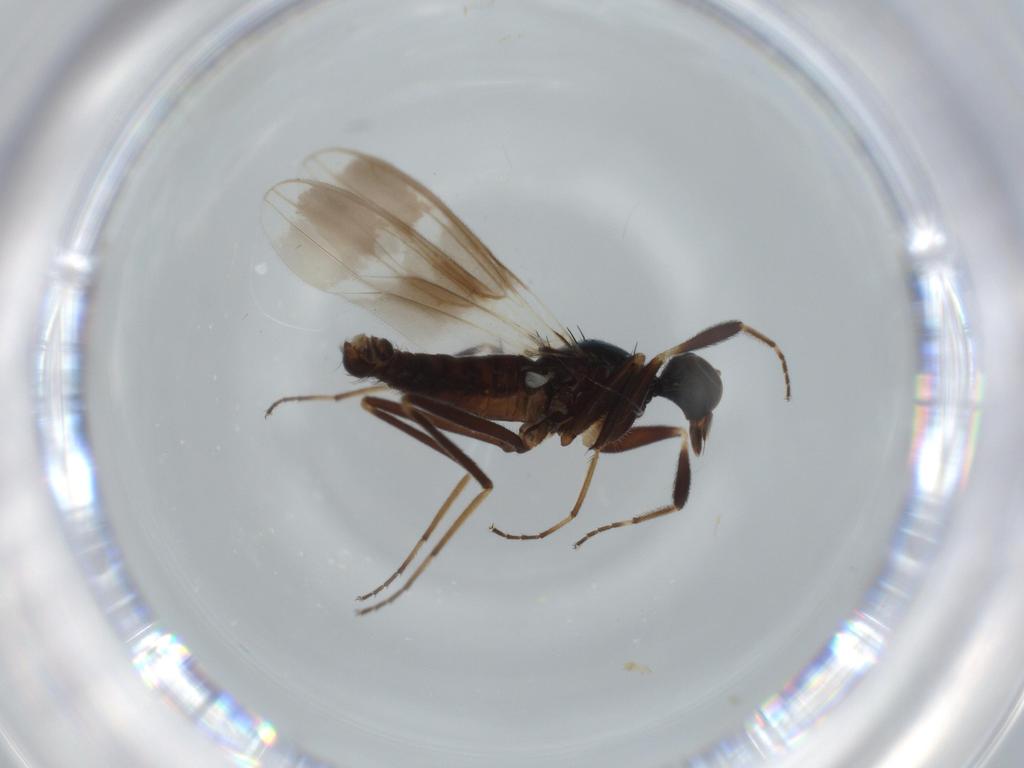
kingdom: Animalia
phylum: Arthropoda
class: Insecta
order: Diptera
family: Hybotidae
